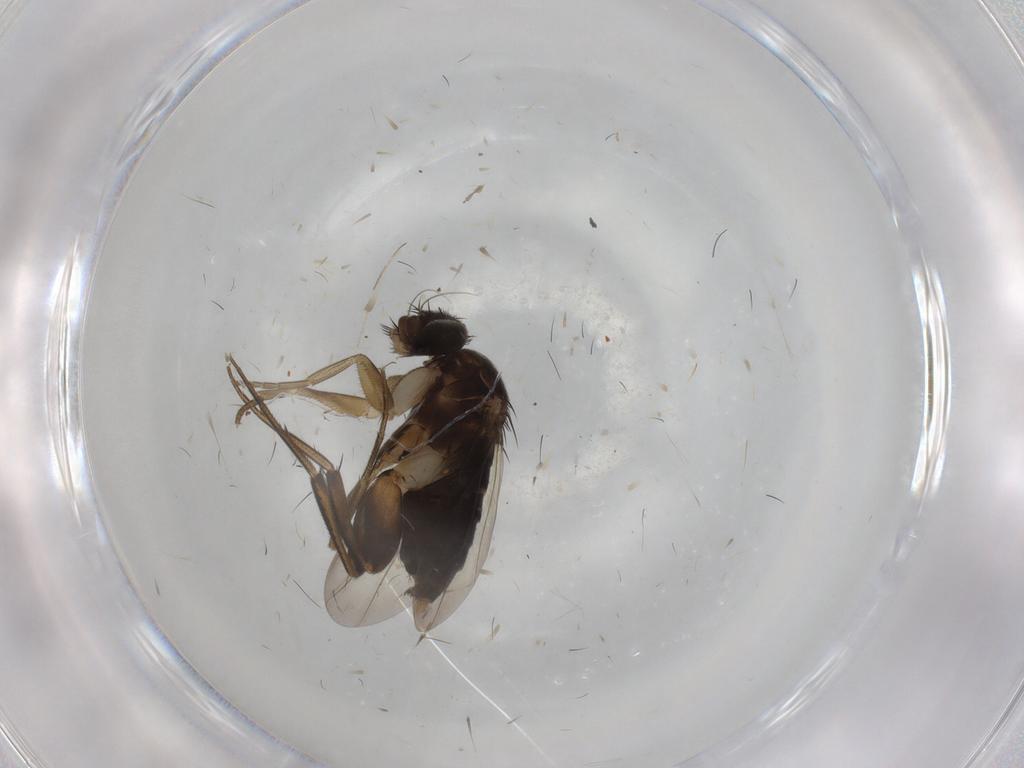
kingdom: Animalia
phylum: Arthropoda
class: Insecta
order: Diptera
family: Phoridae
